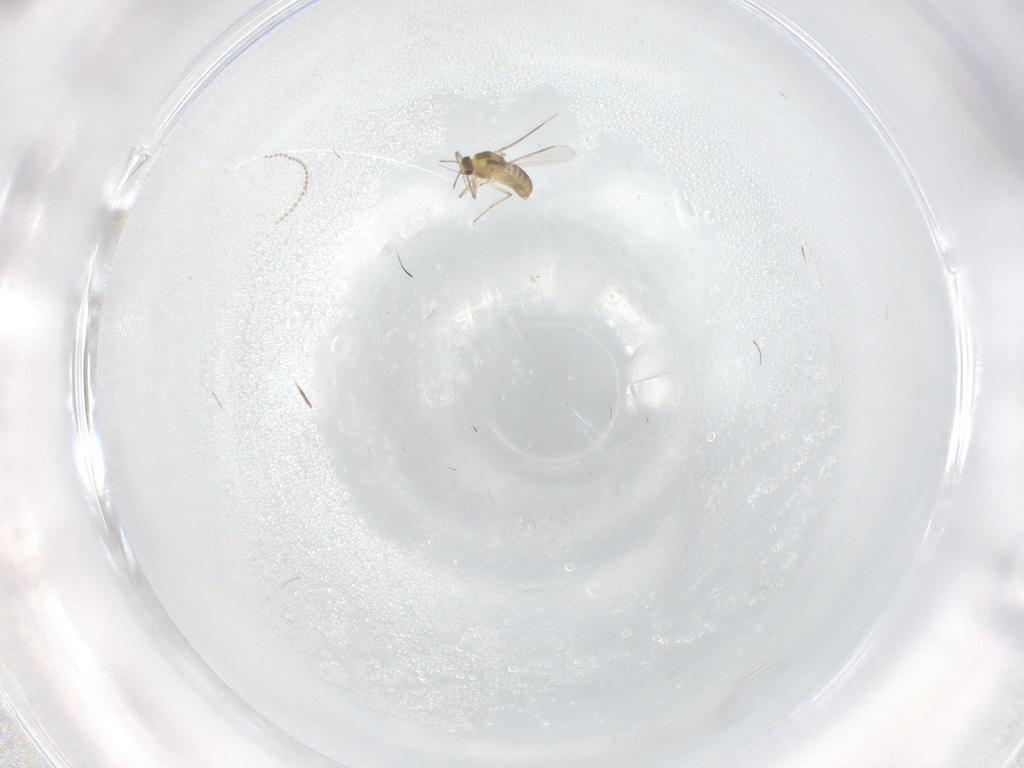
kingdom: Animalia
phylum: Arthropoda
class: Insecta
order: Diptera
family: Cecidomyiidae
